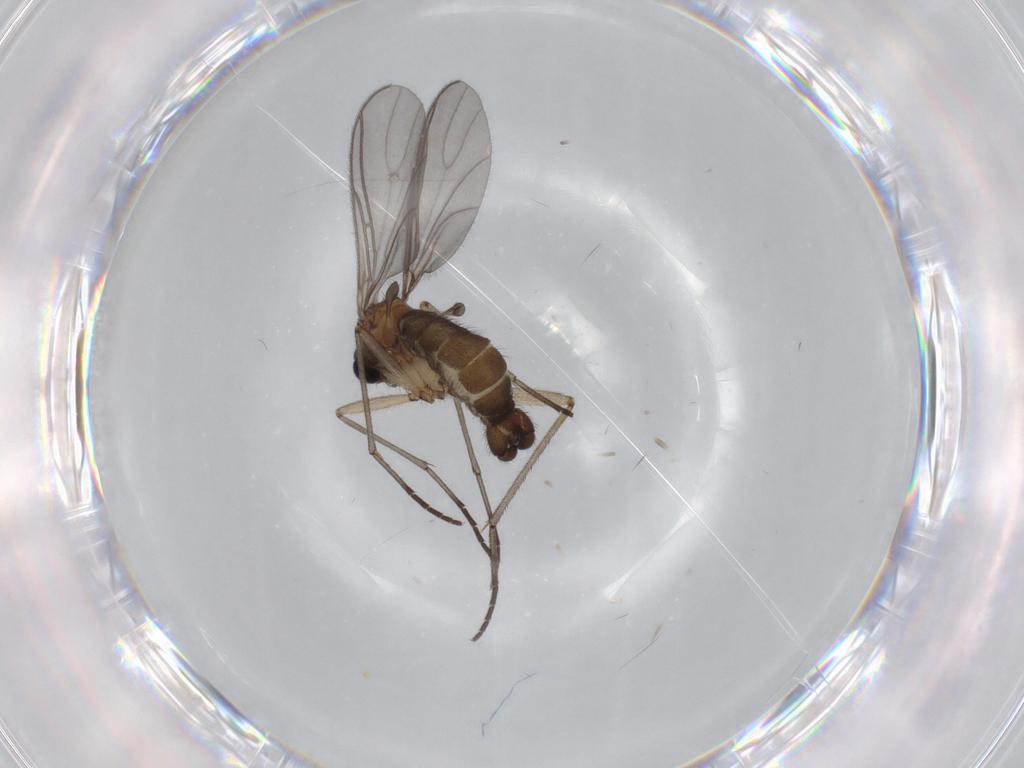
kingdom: Animalia
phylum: Arthropoda
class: Insecta
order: Diptera
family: Sciaridae
